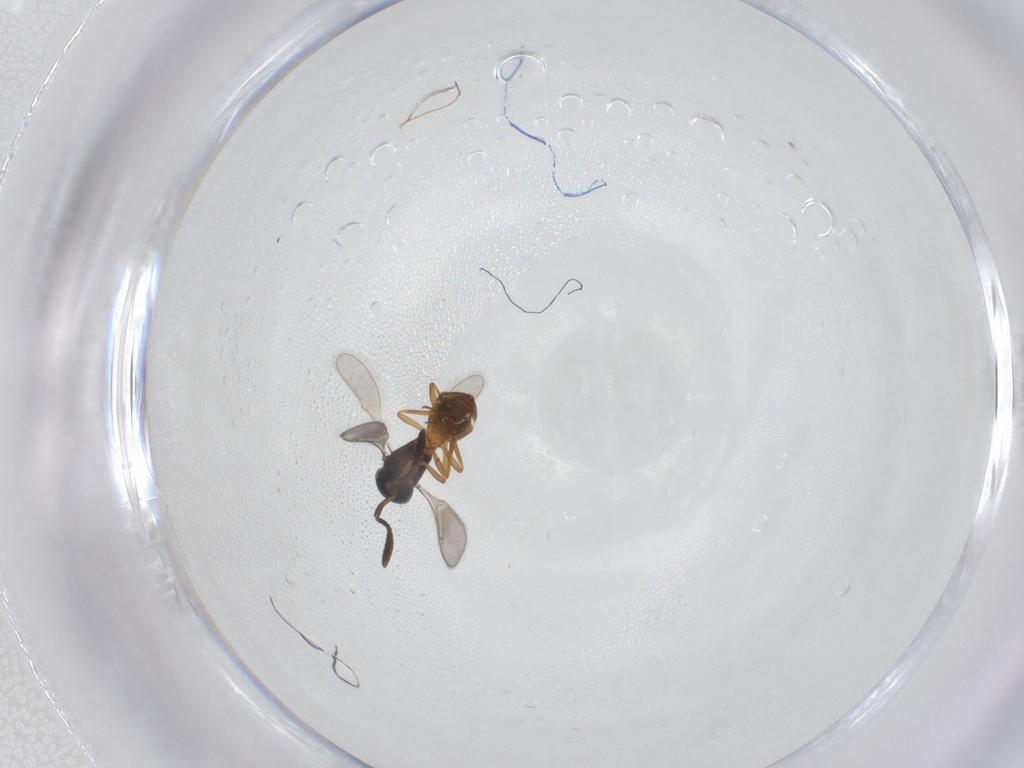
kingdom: Animalia
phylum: Arthropoda
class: Insecta
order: Hymenoptera
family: Scelionidae
